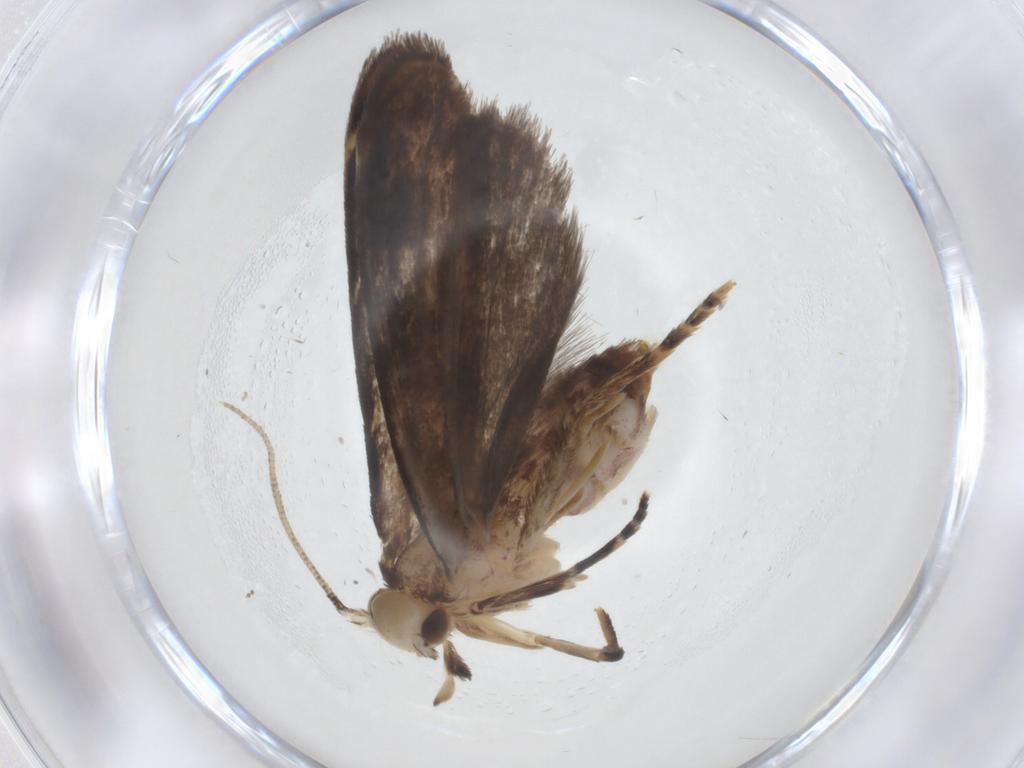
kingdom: Animalia
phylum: Arthropoda
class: Insecta
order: Lepidoptera
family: Dryadaulidae
